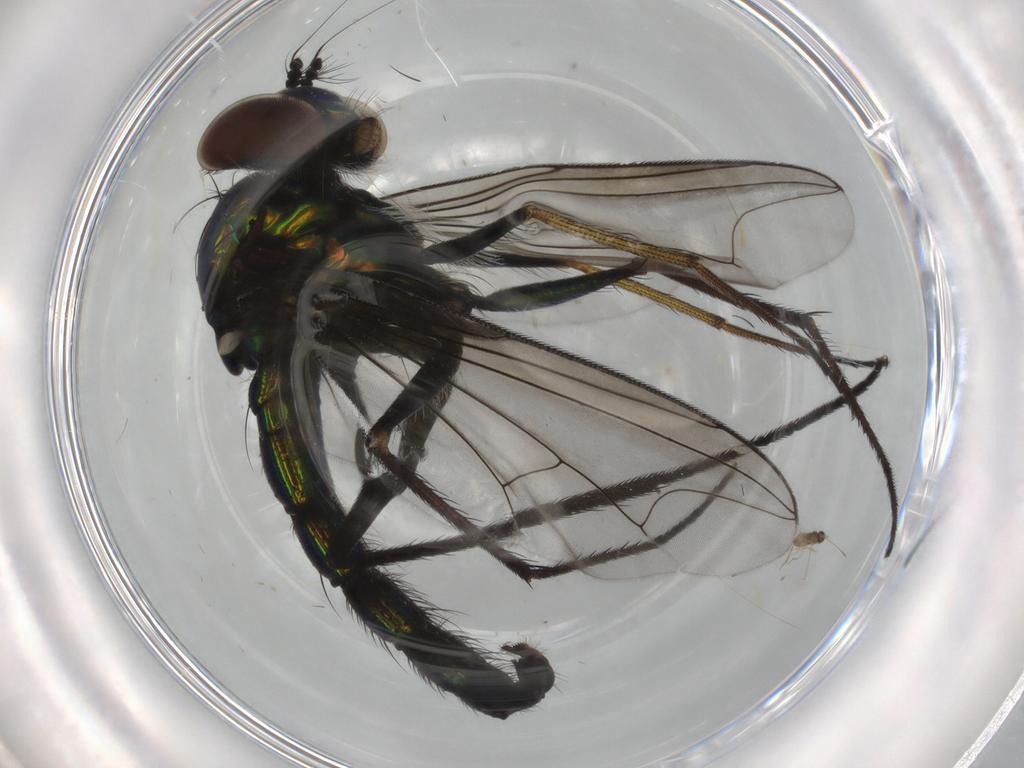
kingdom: Animalia
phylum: Arthropoda
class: Insecta
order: Diptera
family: Cecidomyiidae
